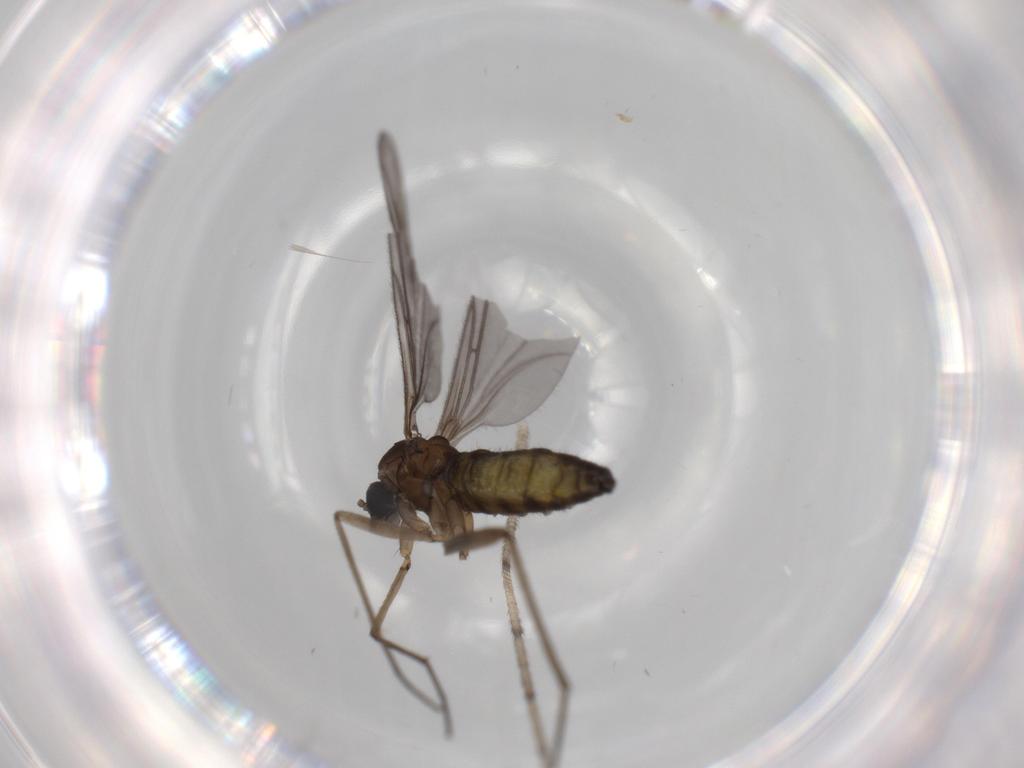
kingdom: Animalia
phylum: Arthropoda
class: Insecta
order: Diptera
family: Sciaridae
